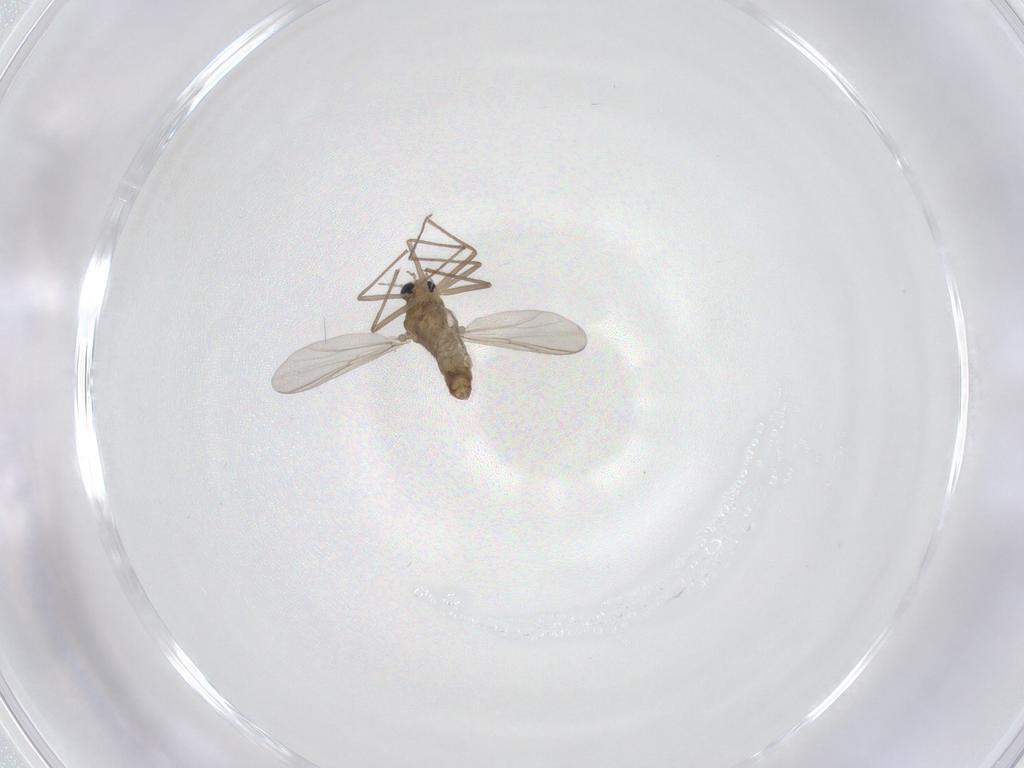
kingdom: Animalia
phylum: Arthropoda
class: Insecta
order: Diptera
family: Chironomidae
